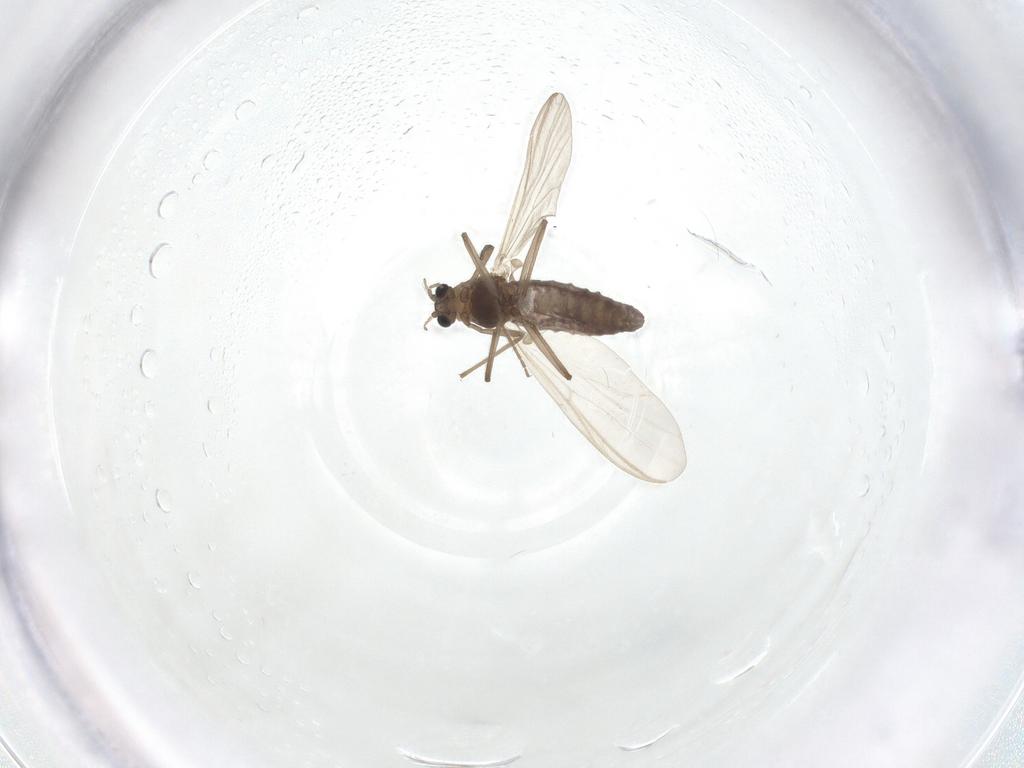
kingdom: Animalia
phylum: Arthropoda
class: Insecta
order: Diptera
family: Chironomidae
